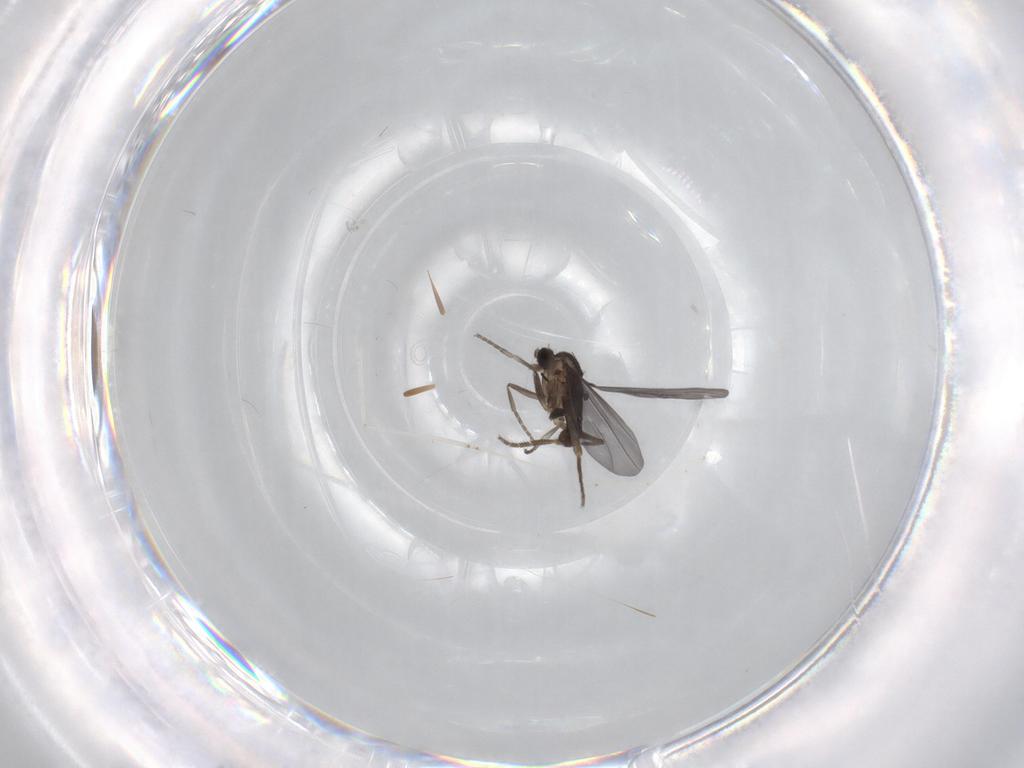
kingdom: Animalia
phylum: Arthropoda
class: Insecta
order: Diptera
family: Phoridae
